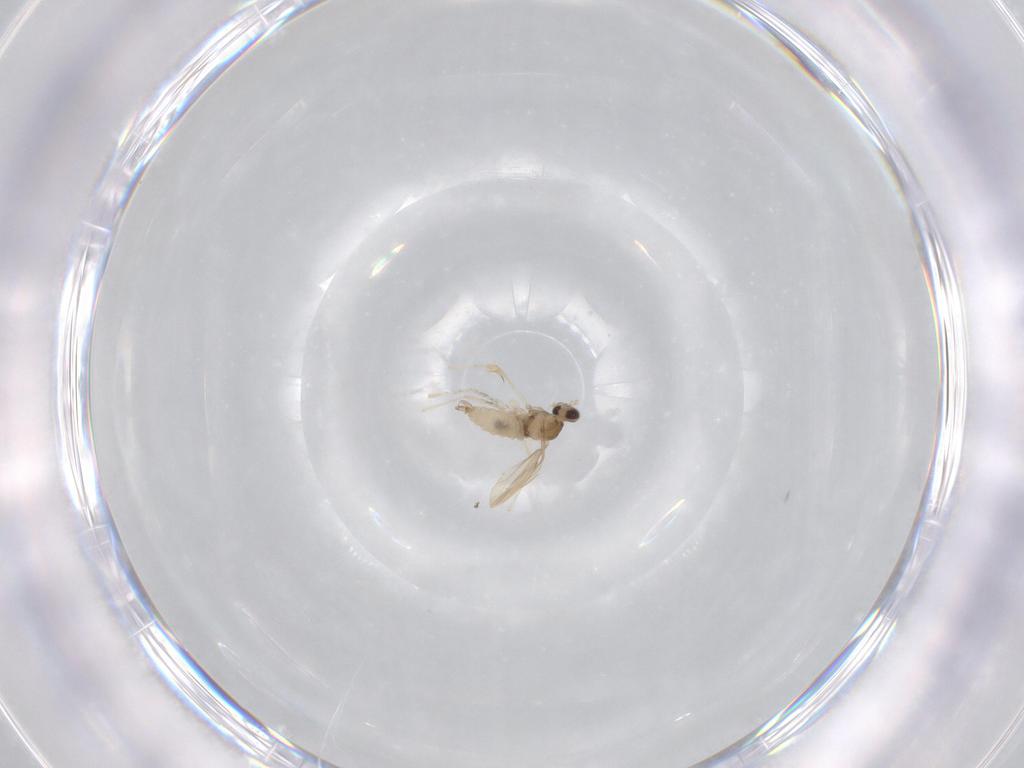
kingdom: Animalia
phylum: Arthropoda
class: Insecta
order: Diptera
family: Cecidomyiidae
